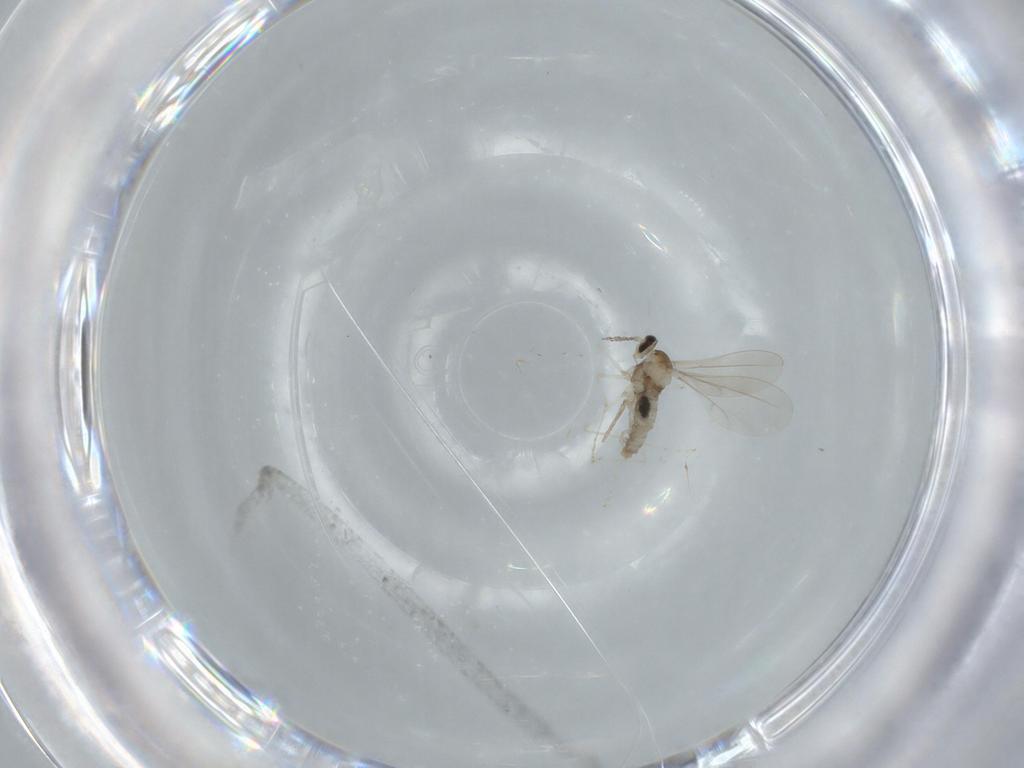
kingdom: Animalia
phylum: Arthropoda
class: Insecta
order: Diptera
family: Cecidomyiidae
